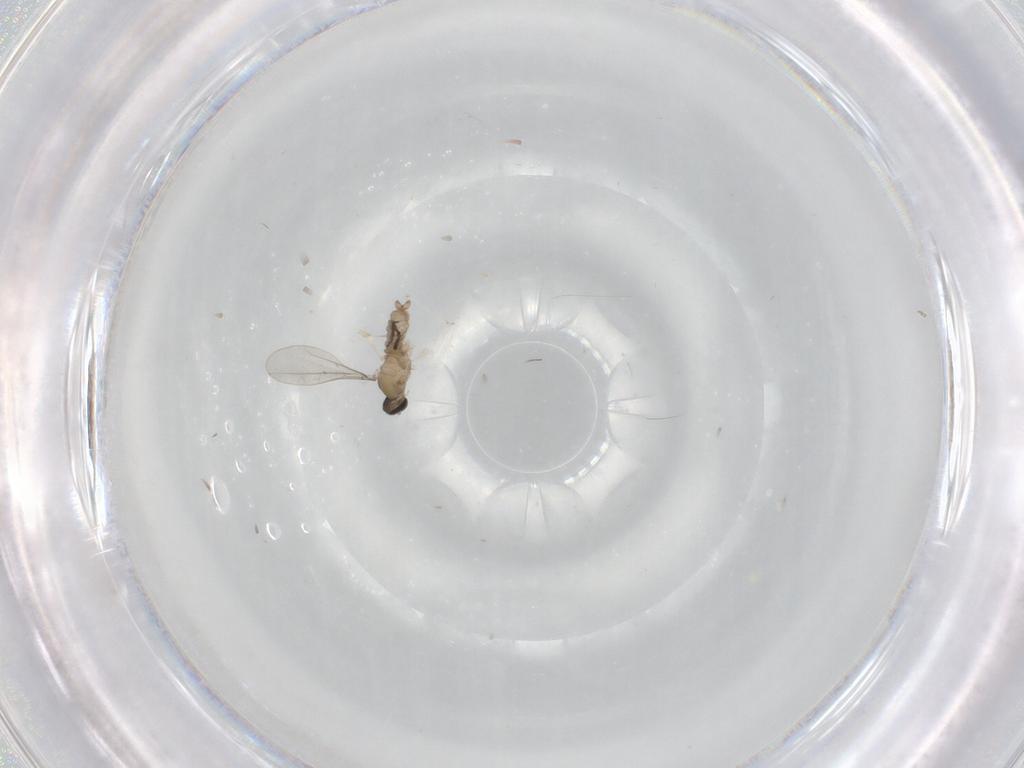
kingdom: Animalia
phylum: Arthropoda
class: Insecta
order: Diptera
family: Cecidomyiidae
